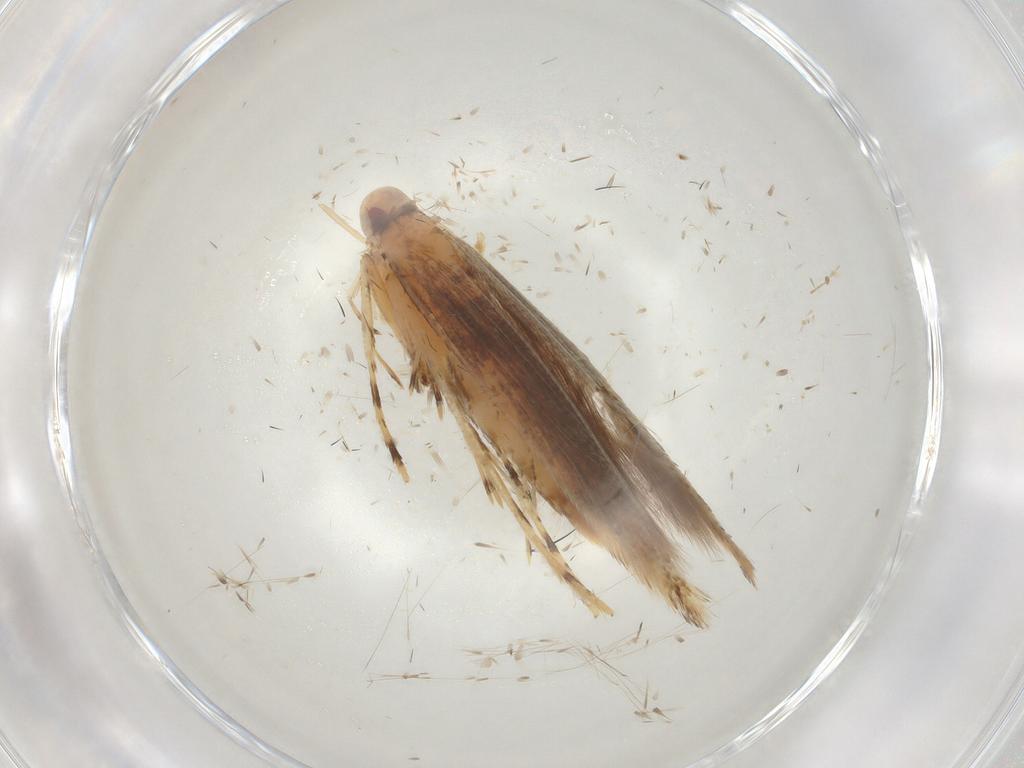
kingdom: Animalia
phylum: Arthropoda
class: Insecta
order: Lepidoptera
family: Cosmopterigidae
